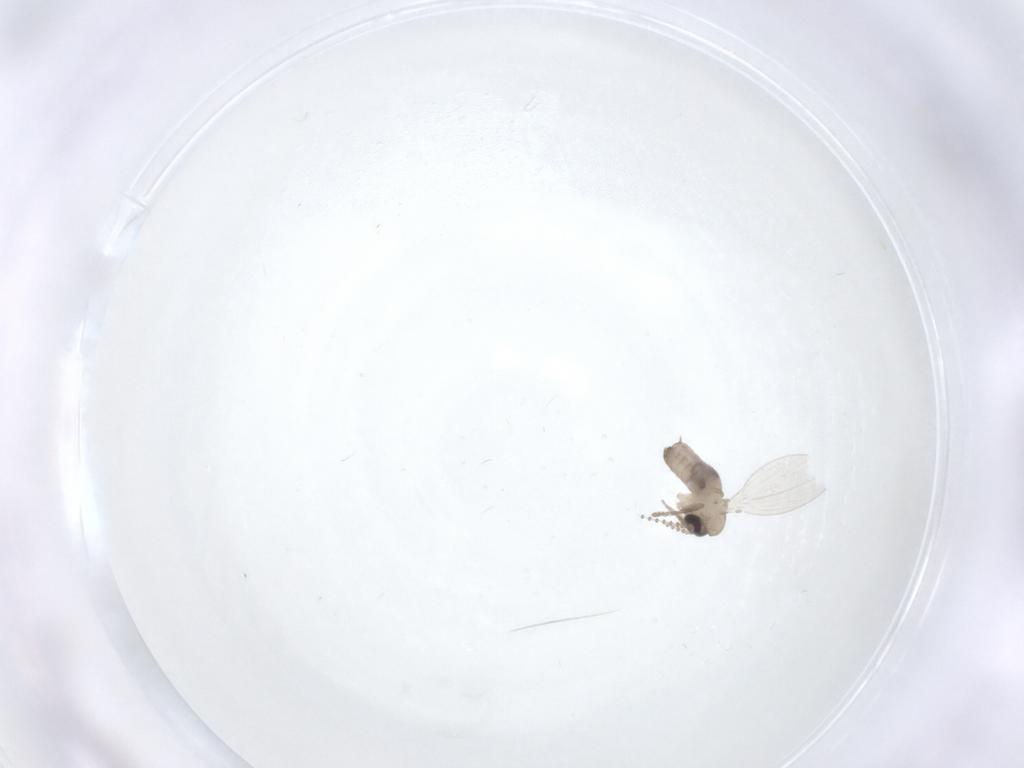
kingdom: Animalia
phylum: Arthropoda
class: Insecta
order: Diptera
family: Psychodidae
